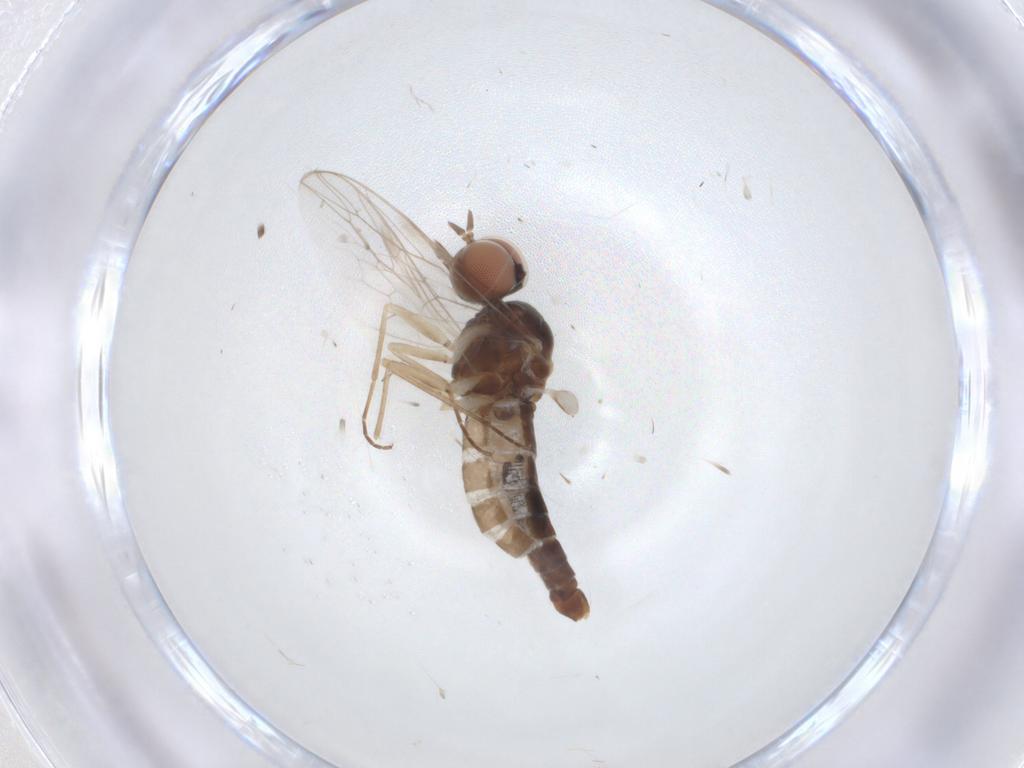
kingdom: Animalia
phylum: Arthropoda
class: Insecta
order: Diptera
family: Scenopinidae
